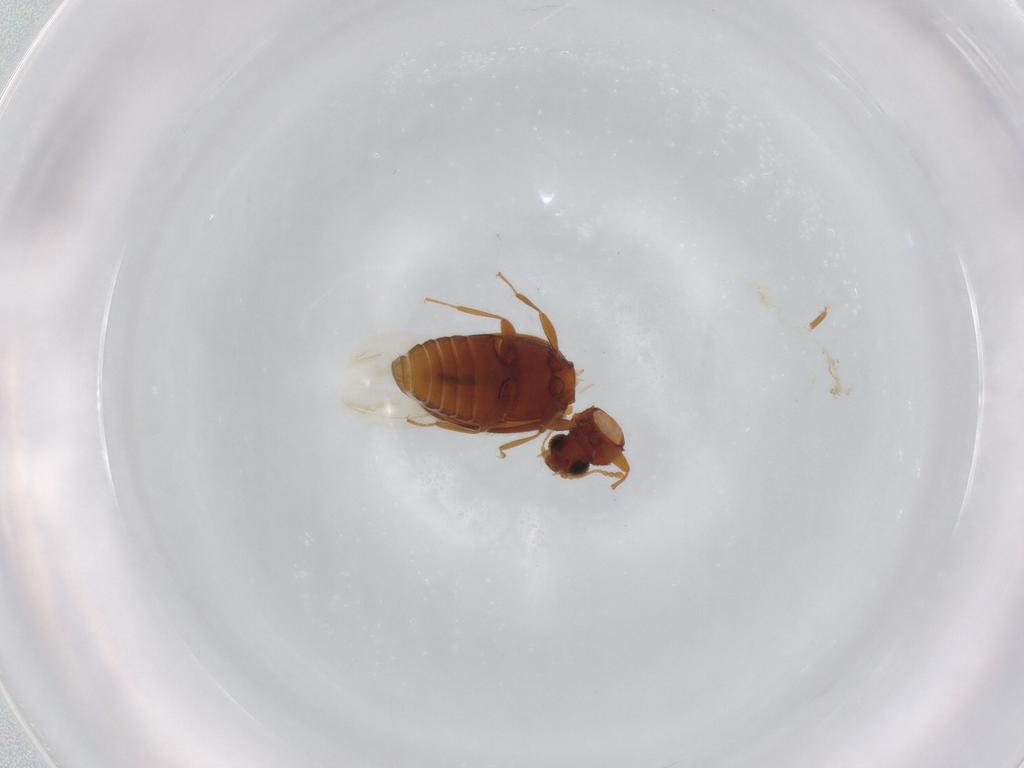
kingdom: Animalia
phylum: Arthropoda
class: Insecta
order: Coleoptera
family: Latridiidae
